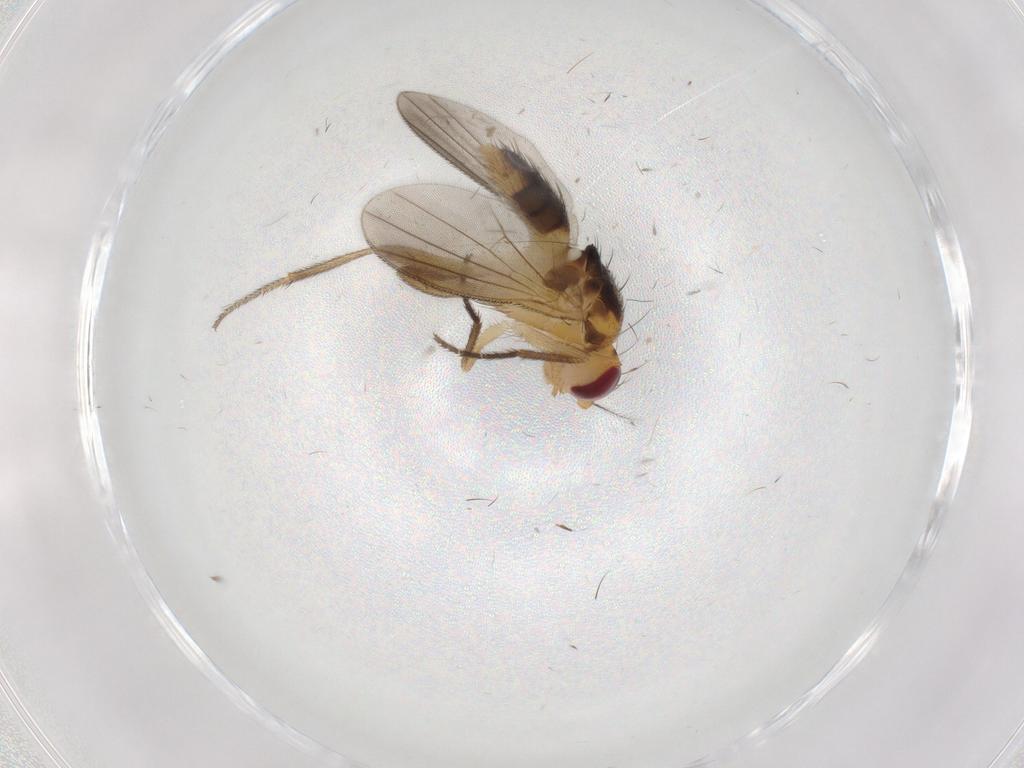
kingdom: Animalia
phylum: Arthropoda
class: Insecta
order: Diptera
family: Clusiidae
